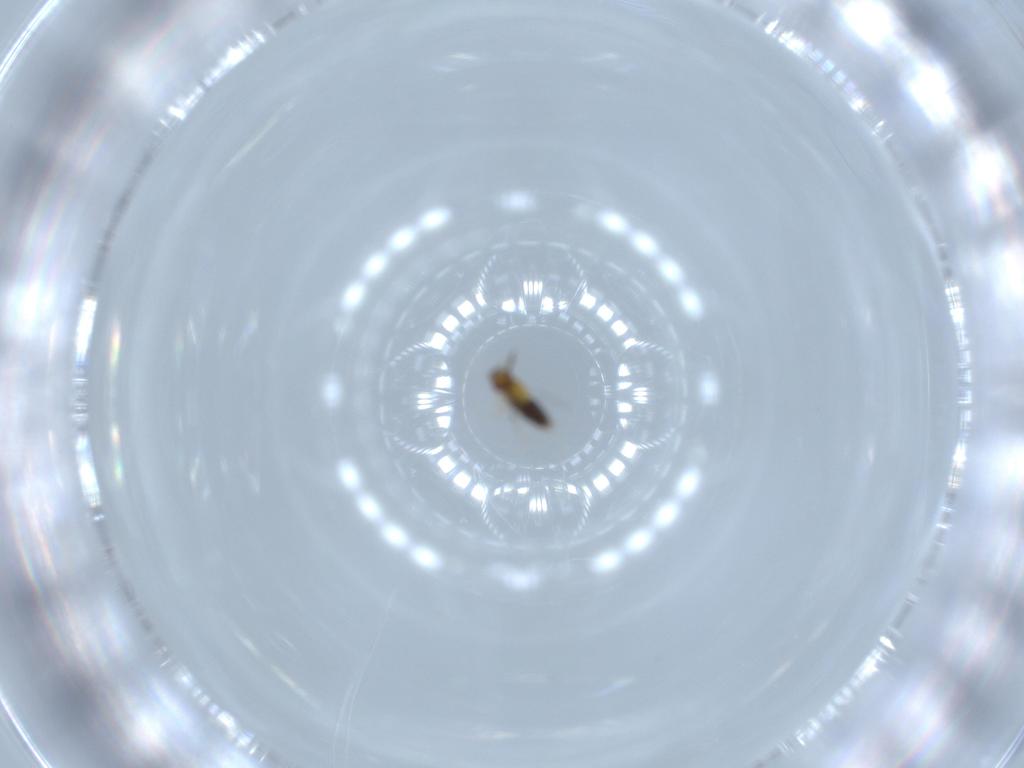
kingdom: Animalia
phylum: Arthropoda
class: Insecta
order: Hymenoptera
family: Trichogrammatidae
